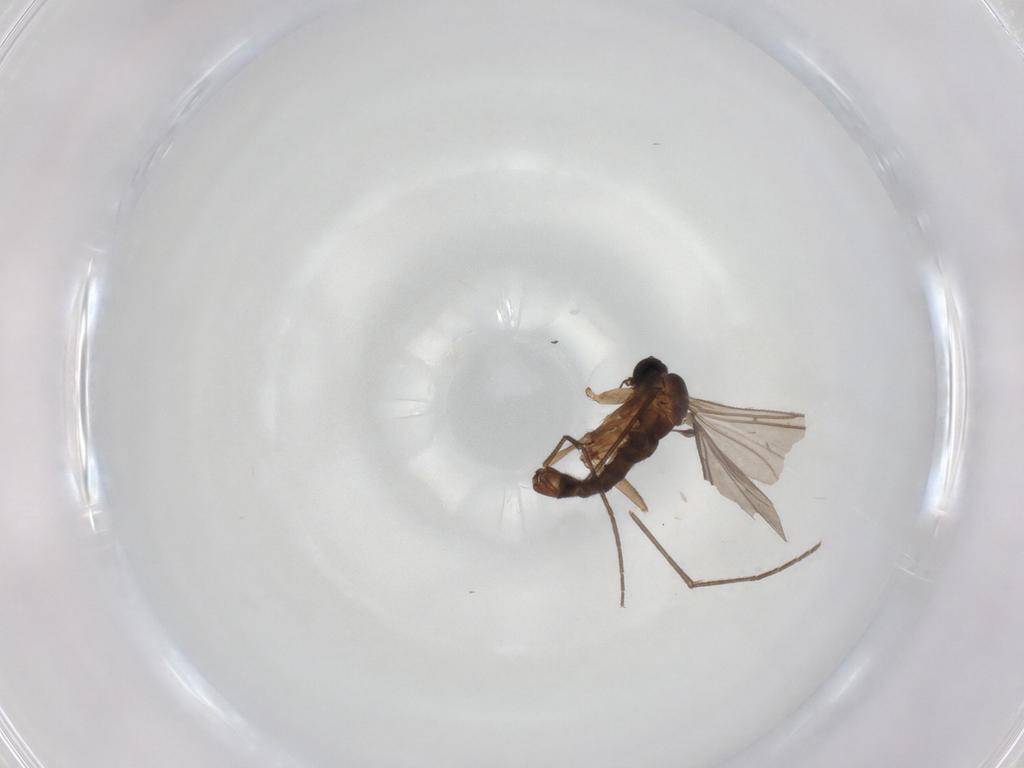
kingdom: Animalia
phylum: Arthropoda
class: Insecta
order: Diptera
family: Sciaridae
